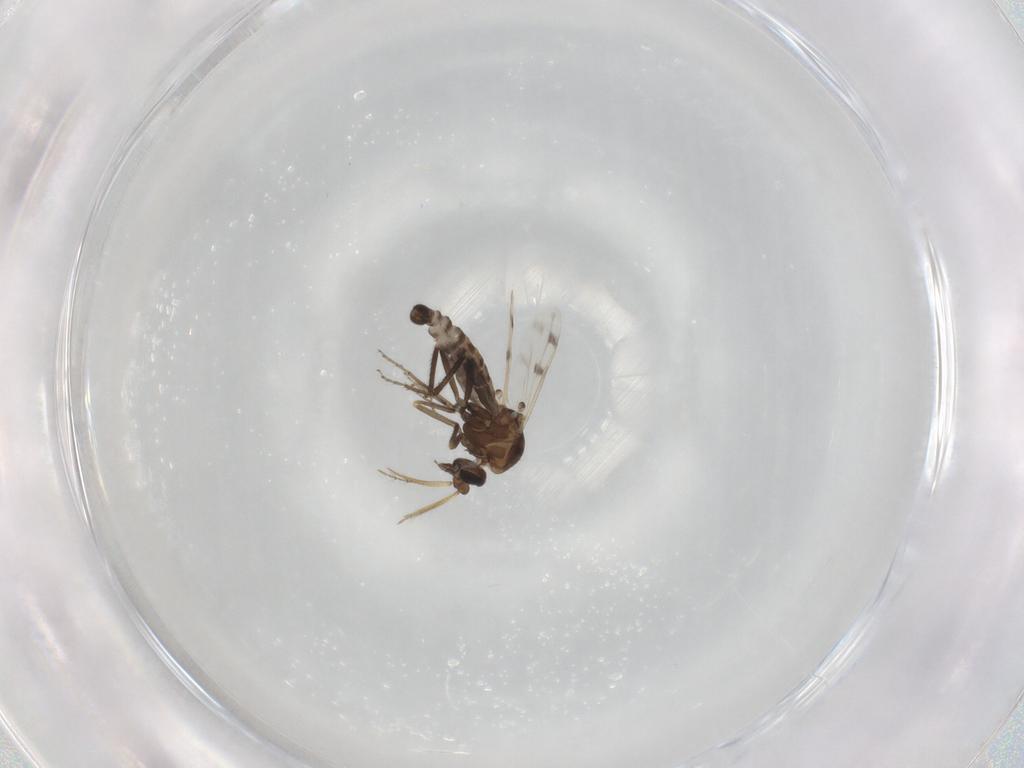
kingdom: Animalia
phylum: Arthropoda
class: Insecta
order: Diptera
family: Ceratopogonidae
